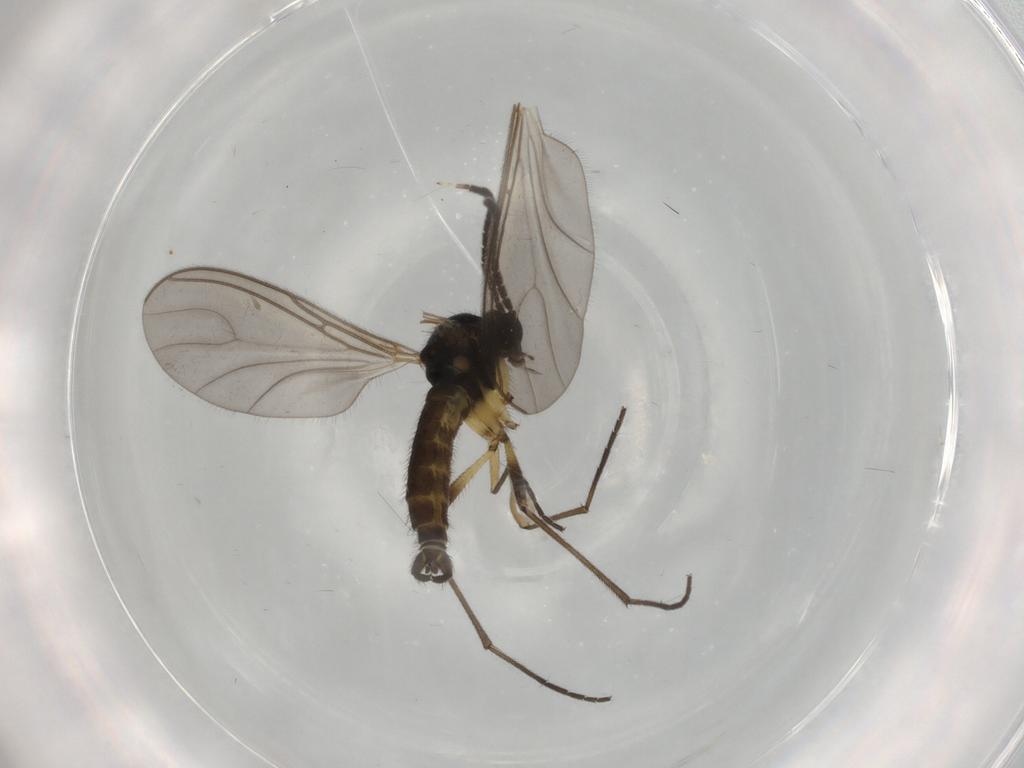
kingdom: Animalia
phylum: Arthropoda
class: Insecta
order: Diptera
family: Sciaridae
